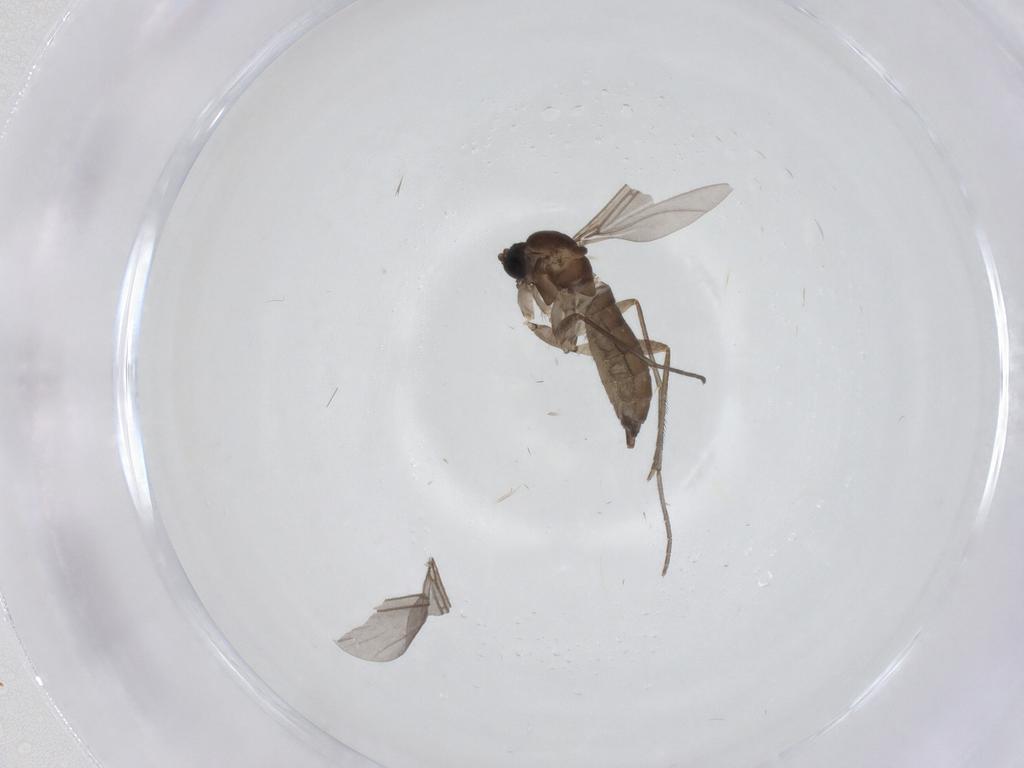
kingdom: Animalia
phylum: Arthropoda
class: Insecta
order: Diptera
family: Sciaridae
